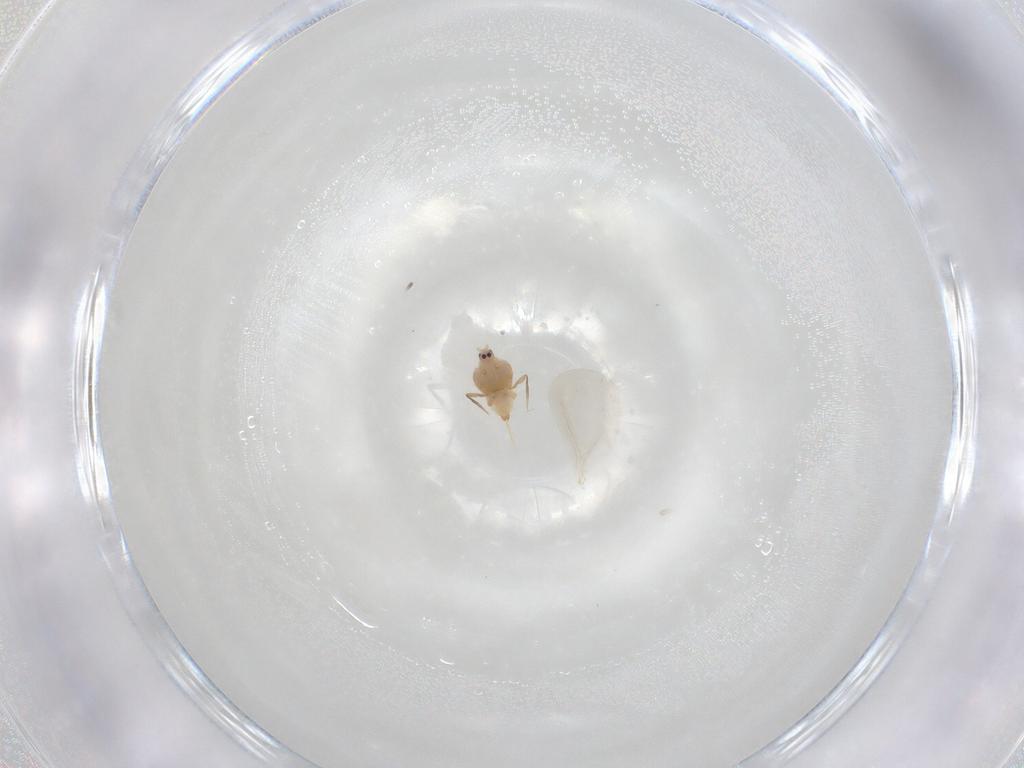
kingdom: Animalia
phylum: Arthropoda
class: Insecta
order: Hemiptera
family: Diaspididae
